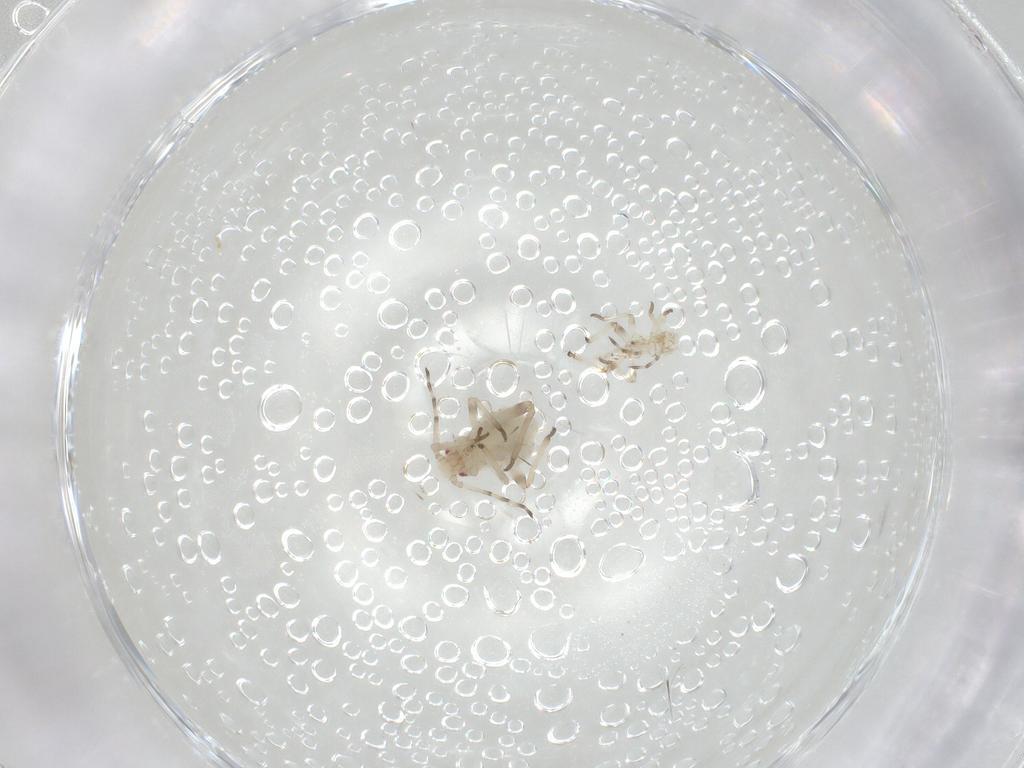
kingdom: Animalia
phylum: Arthropoda
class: Insecta
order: Hemiptera
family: Aphididae
